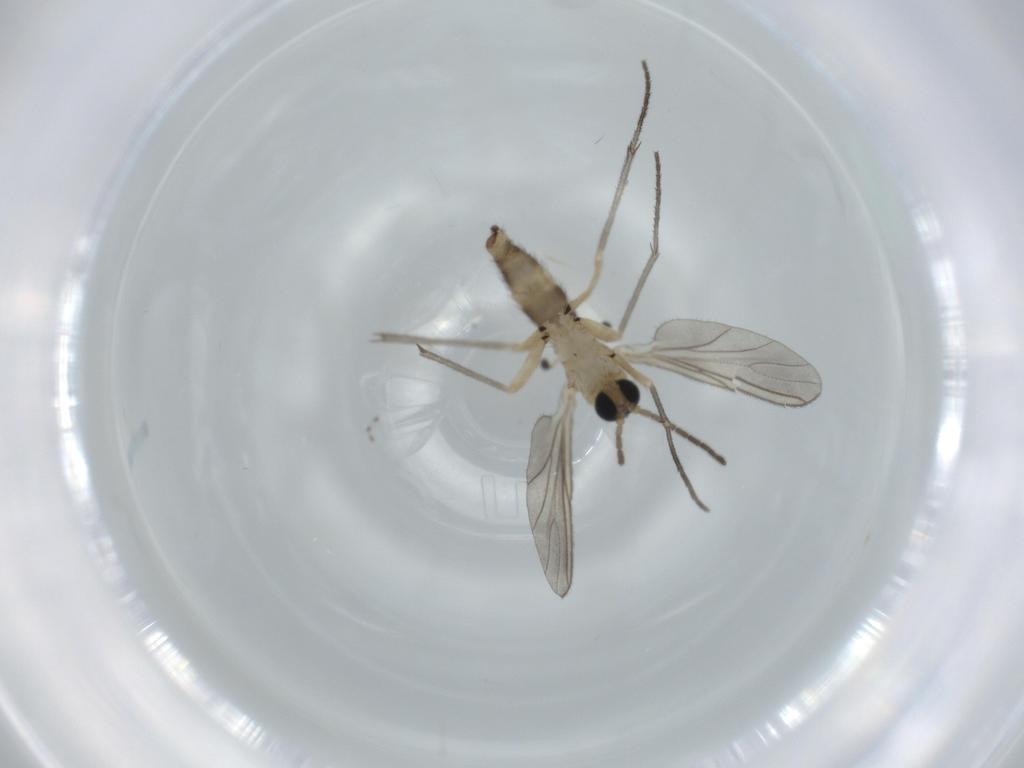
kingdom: Animalia
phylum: Arthropoda
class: Insecta
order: Diptera
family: Sciaridae
